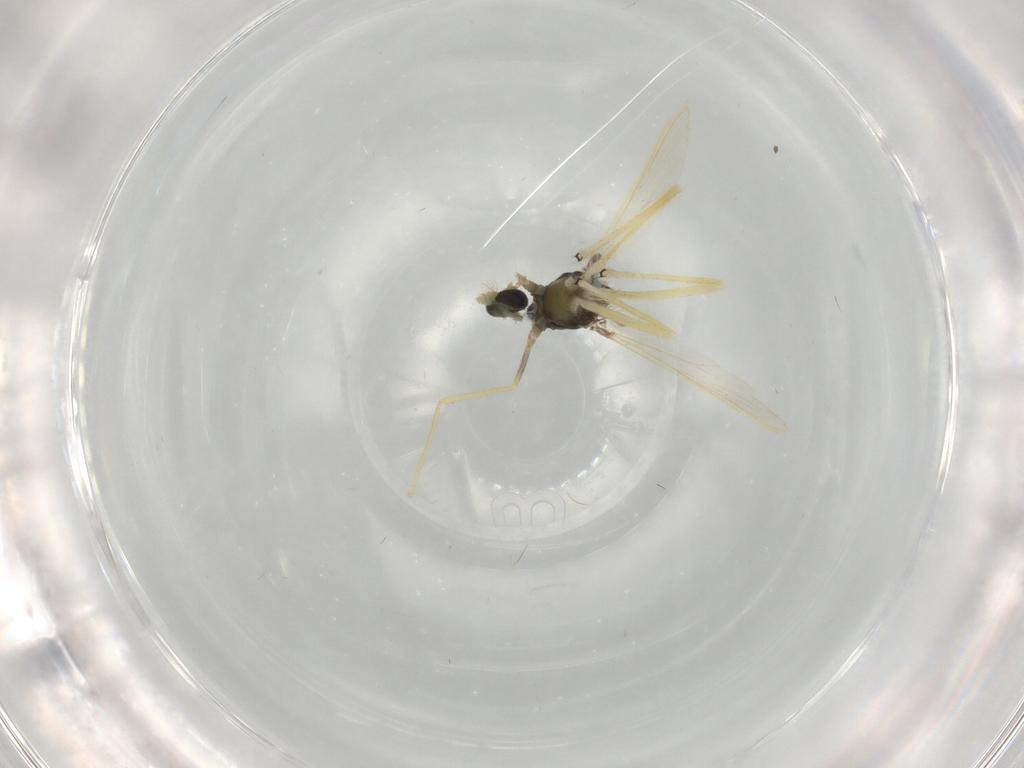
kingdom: Animalia
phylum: Arthropoda
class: Insecta
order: Diptera
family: Chironomidae
